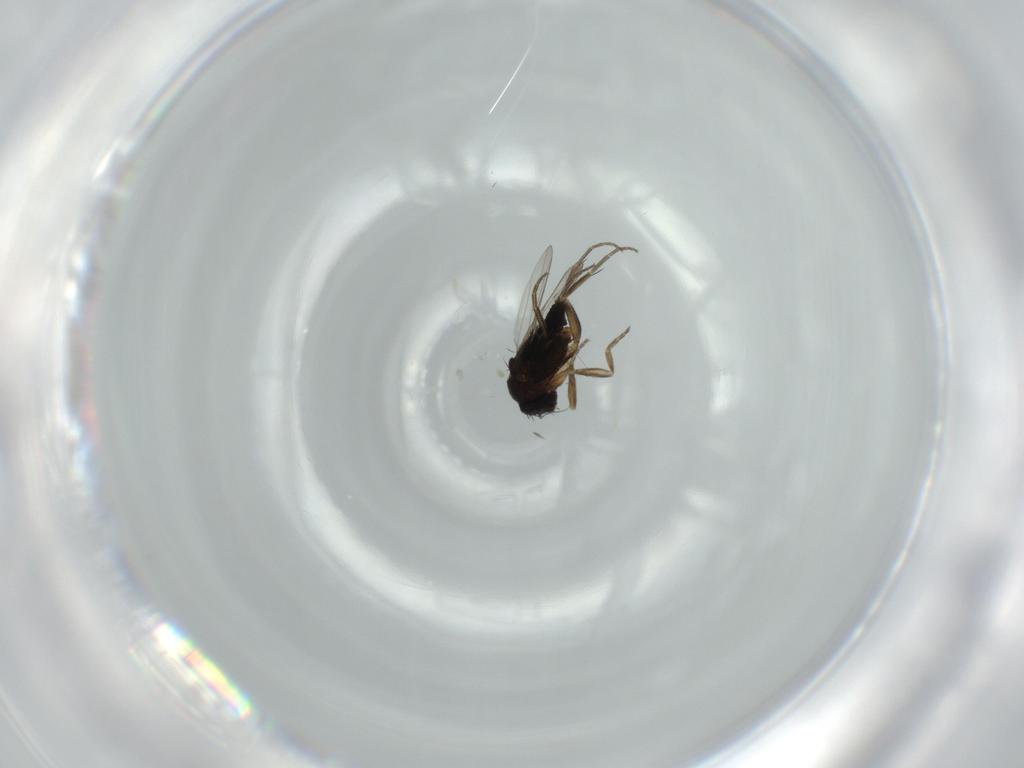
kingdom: Animalia
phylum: Arthropoda
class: Insecta
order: Diptera
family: Phoridae
